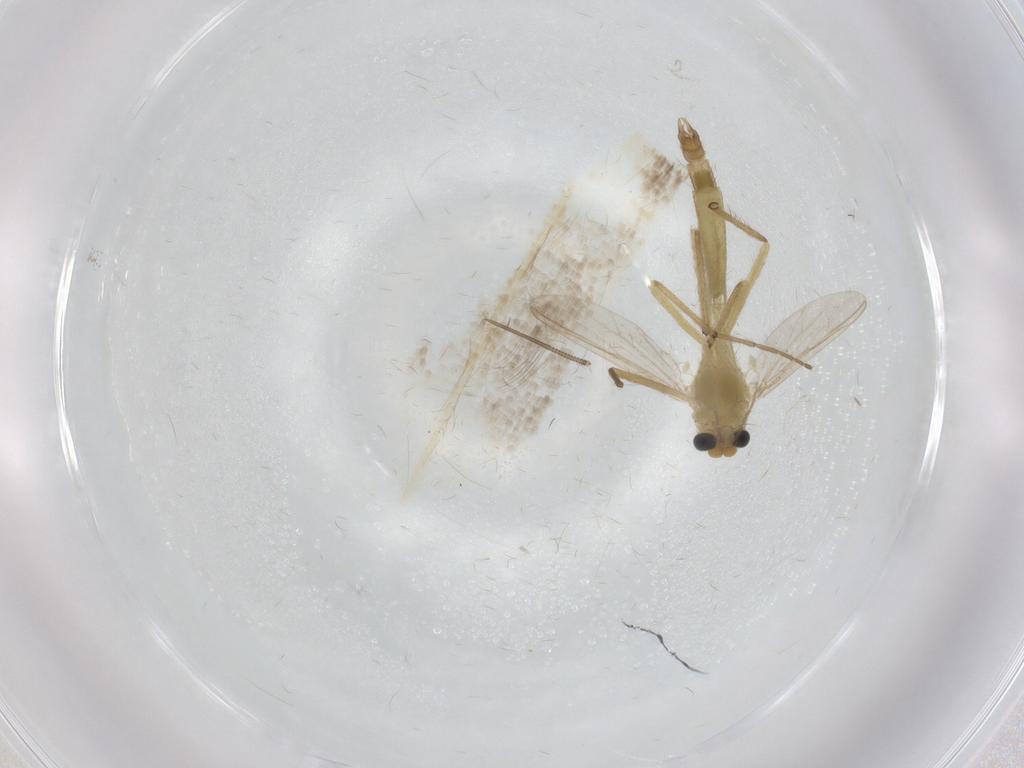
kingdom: Animalia
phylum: Arthropoda
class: Insecta
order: Diptera
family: Chironomidae
